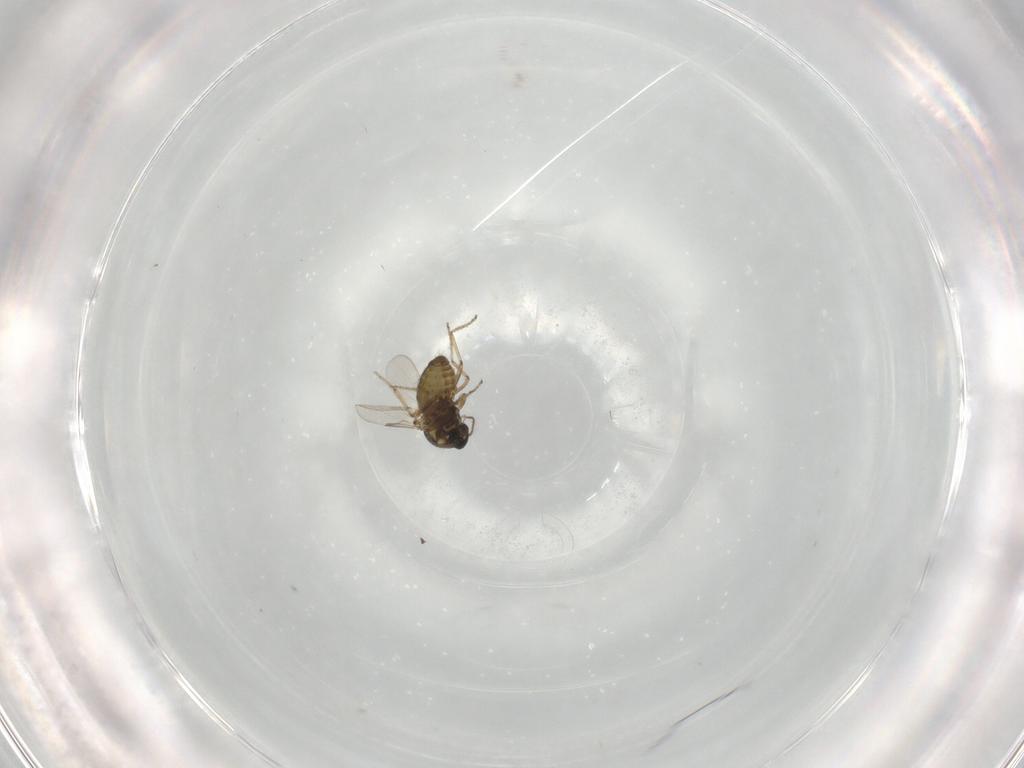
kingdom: Animalia
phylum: Arthropoda
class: Insecta
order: Diptera
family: Ceratopogonidae
